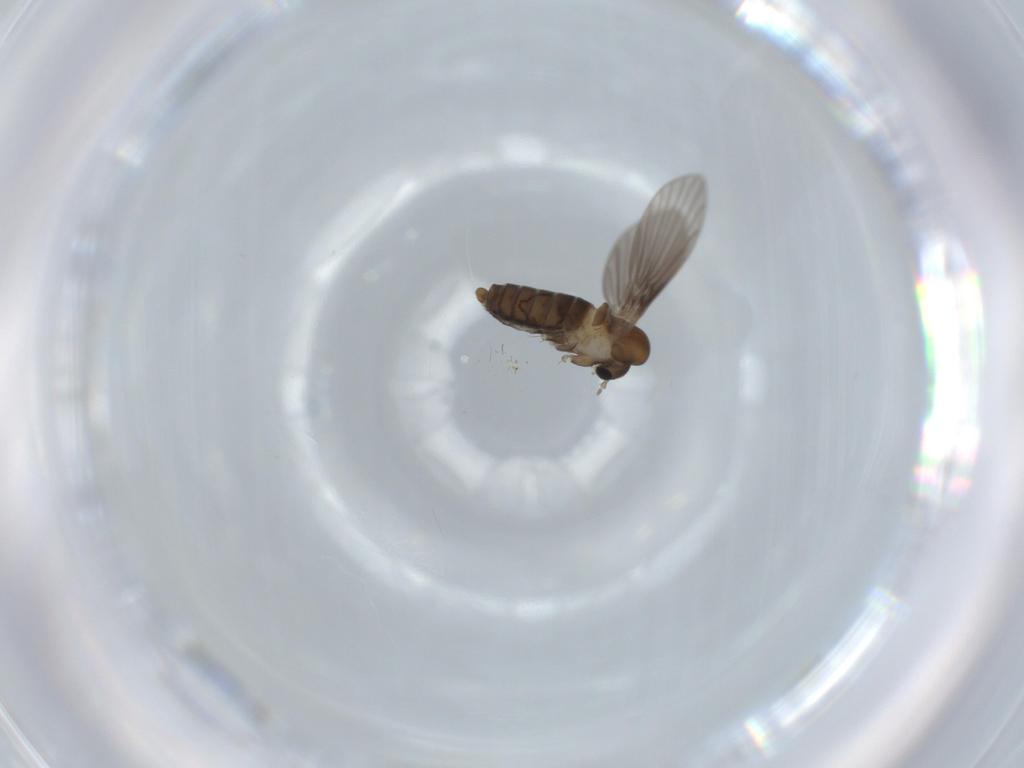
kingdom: Animalia
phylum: Arthropoda
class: Insecta
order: Diptera
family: Psychodidae
